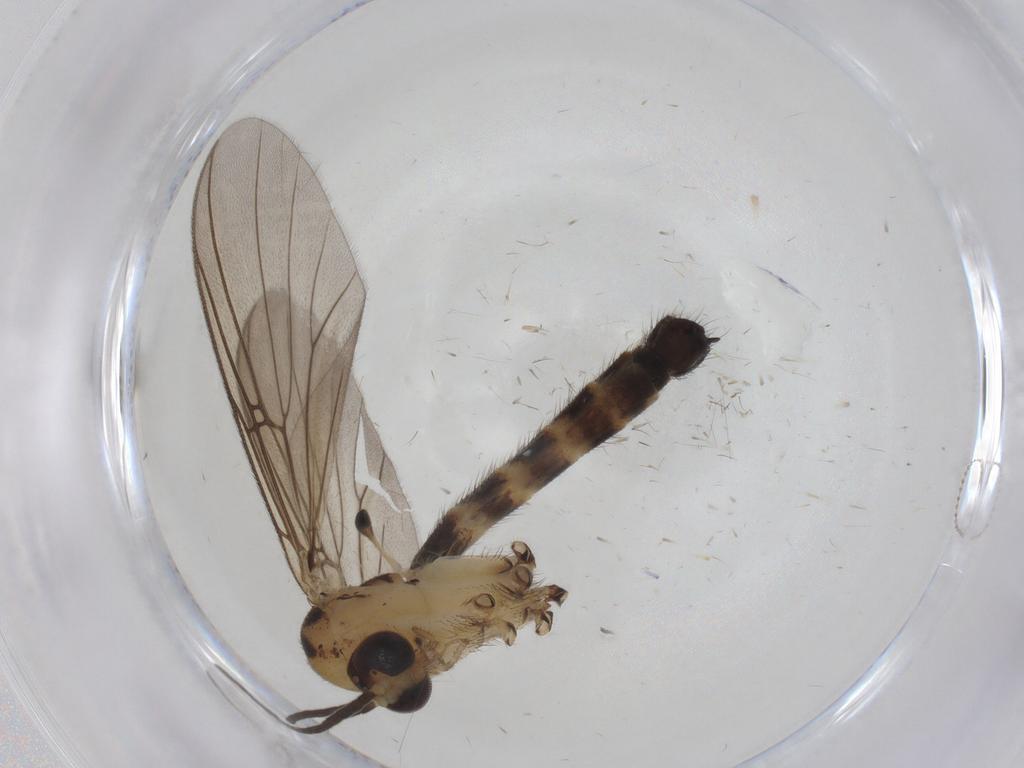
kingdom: Animalia
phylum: Arthropoda
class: Insecta
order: Diptera
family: Mycetophilidae
